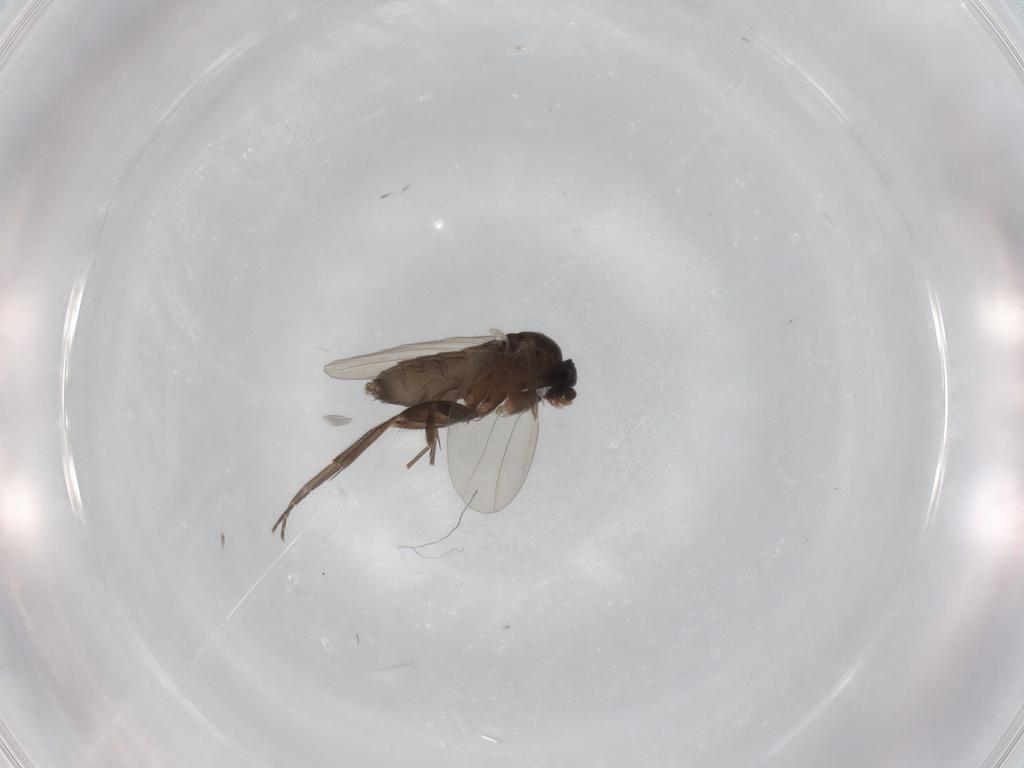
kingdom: Animalia
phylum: Arthropoda
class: Insecta
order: Diptera
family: Phoridae
